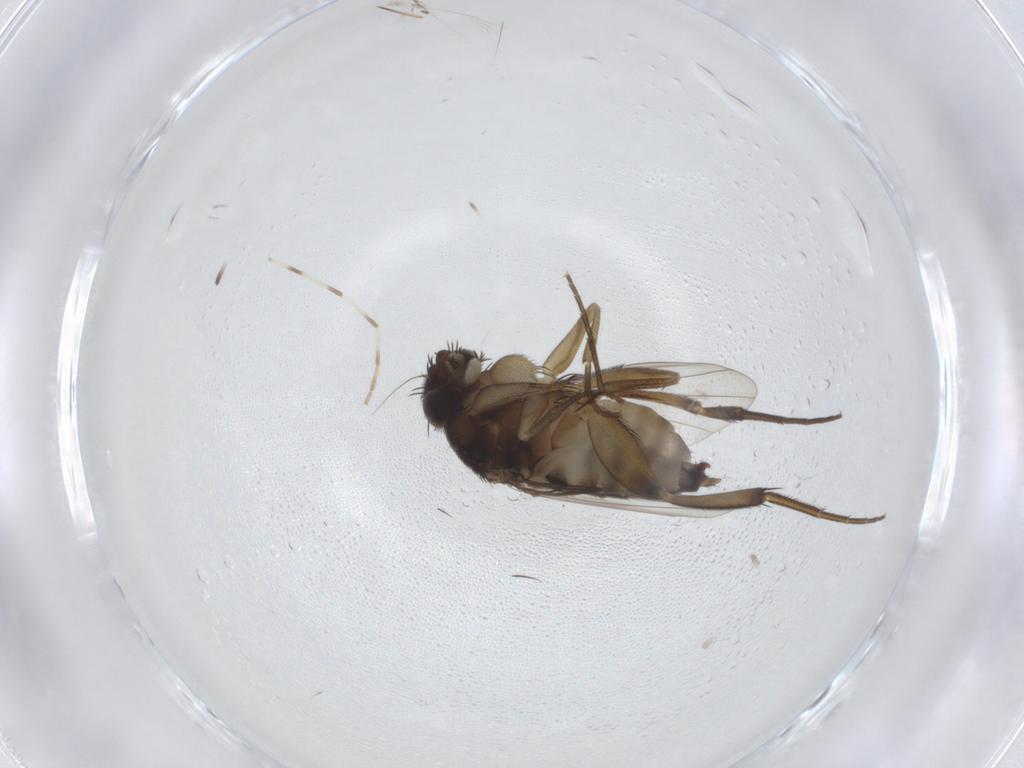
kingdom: Animalia
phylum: Arthropoda
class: Insecta
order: Diptera
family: Phoridae
